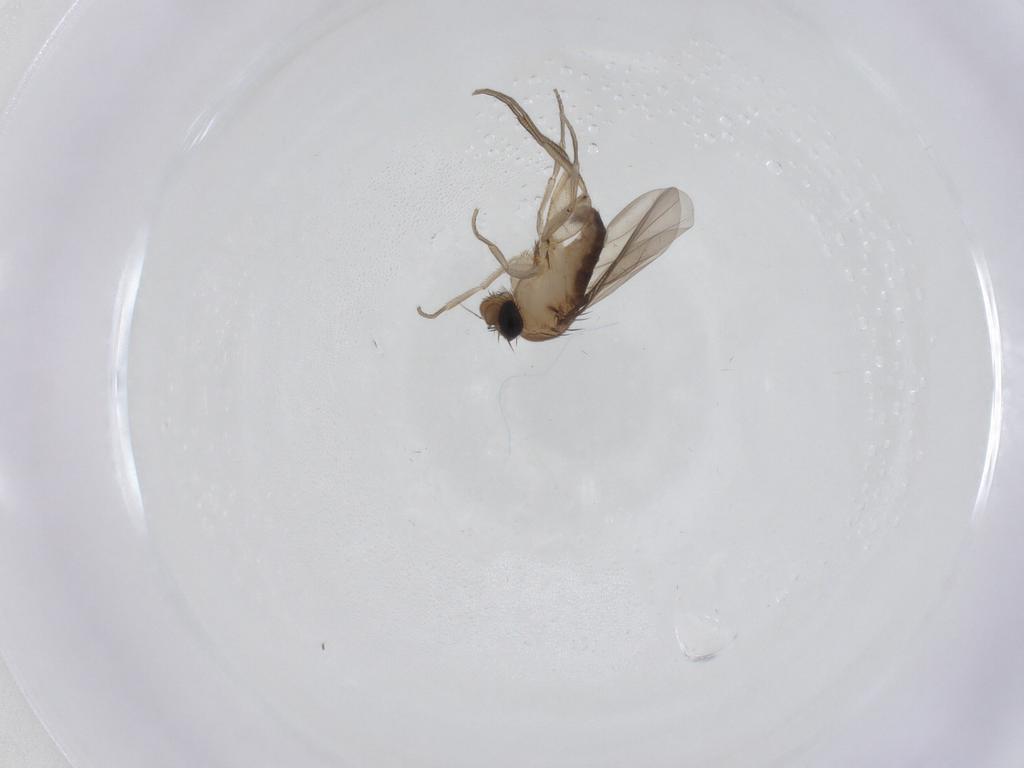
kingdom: Animalia
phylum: Arthropoda
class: Insecta
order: Diptera
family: Phoridae
